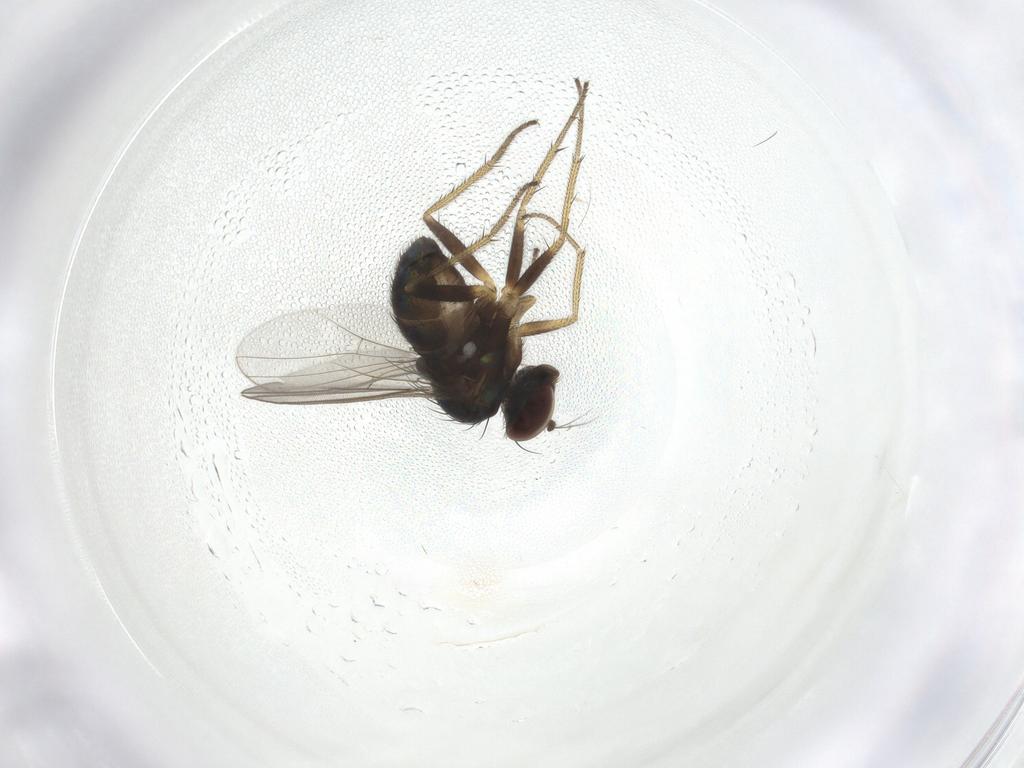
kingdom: Animalia
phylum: Arthropoda
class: Insecta
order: Diptera
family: Dolichopodidae
